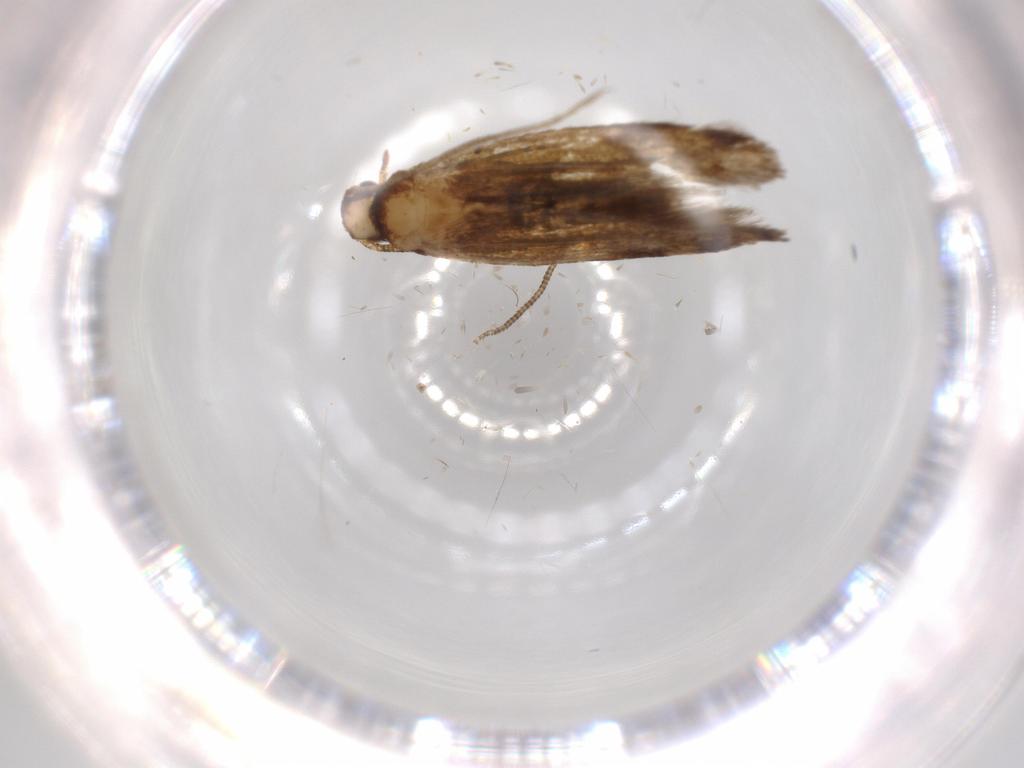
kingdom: Animalia
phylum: Arthropoda
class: Insecta
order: Lepidoptera
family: Tineidae
